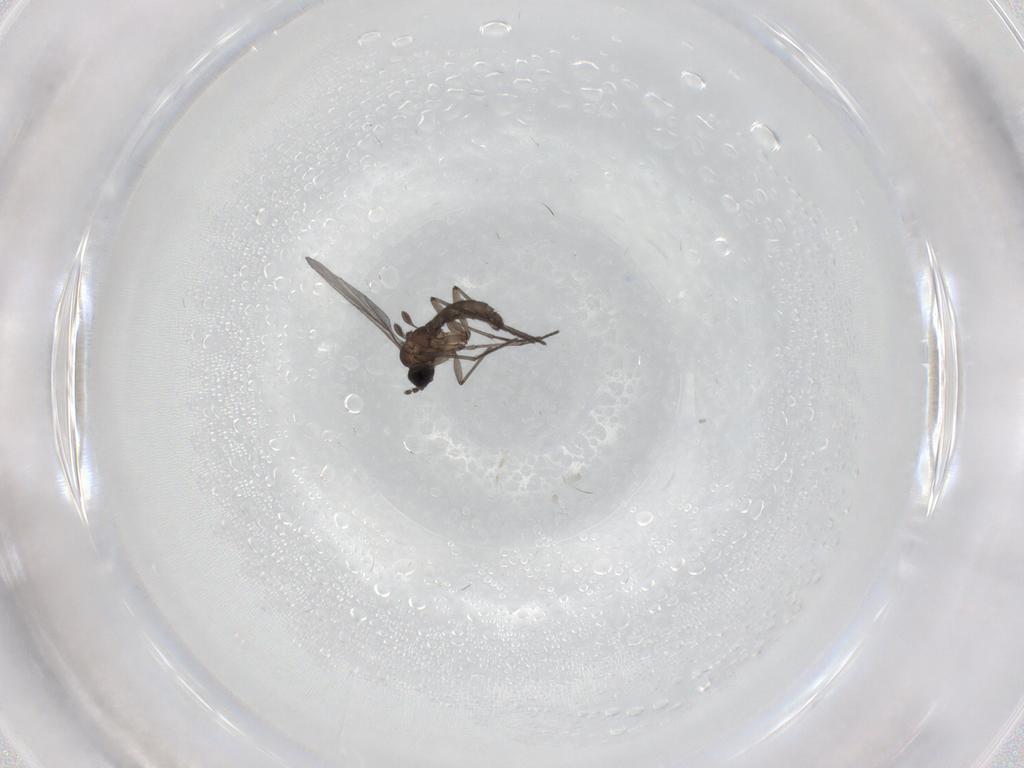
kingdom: Animalia
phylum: Arthropoda
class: Insecta
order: Diptera
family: Cecidomyiidae
